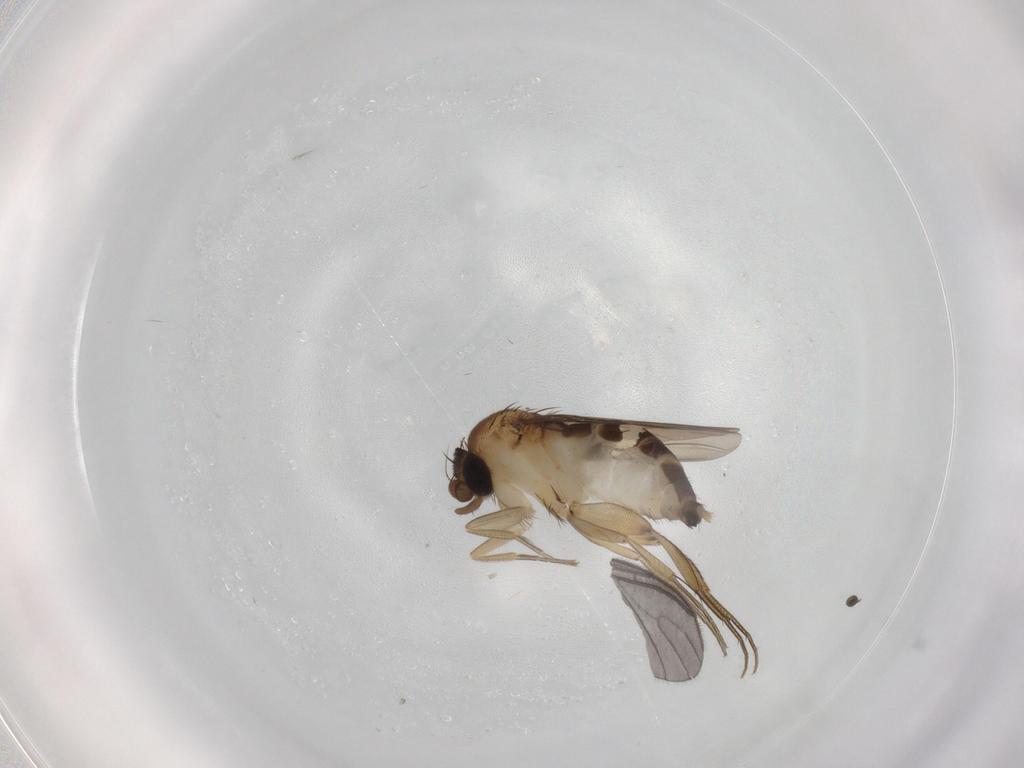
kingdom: Animalia
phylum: Arthropoda
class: Insecta
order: Diptera
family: Phoridae
